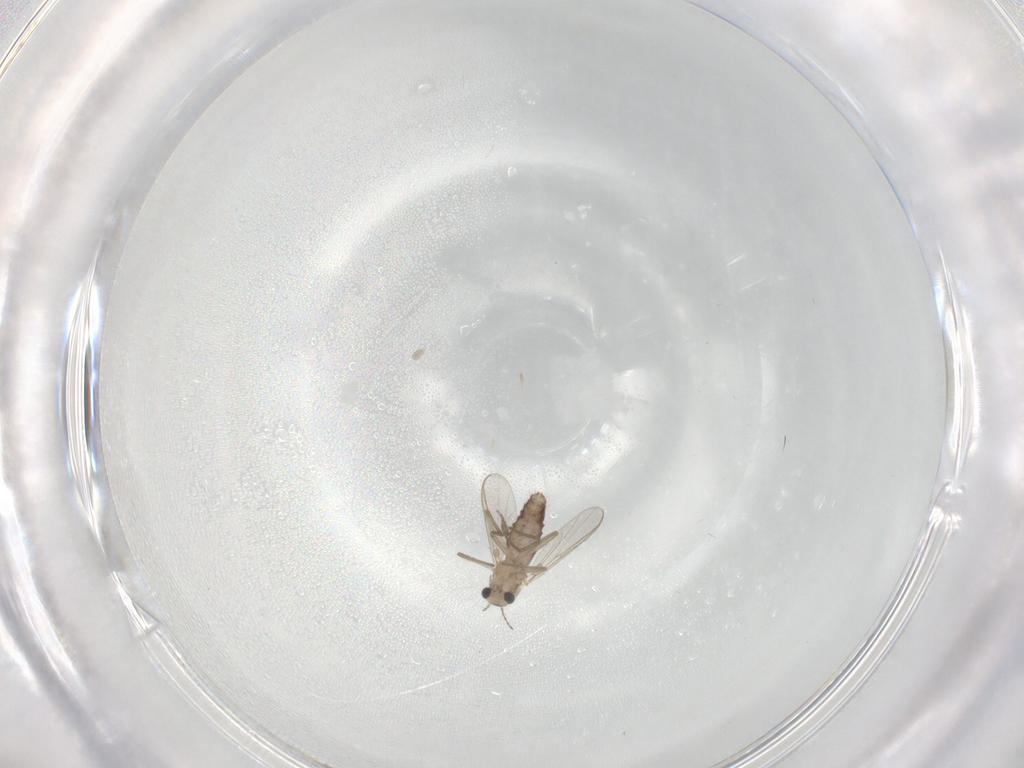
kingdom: Animalia
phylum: Arthropoda
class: Insecta
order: Diptera
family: Chironomidae
